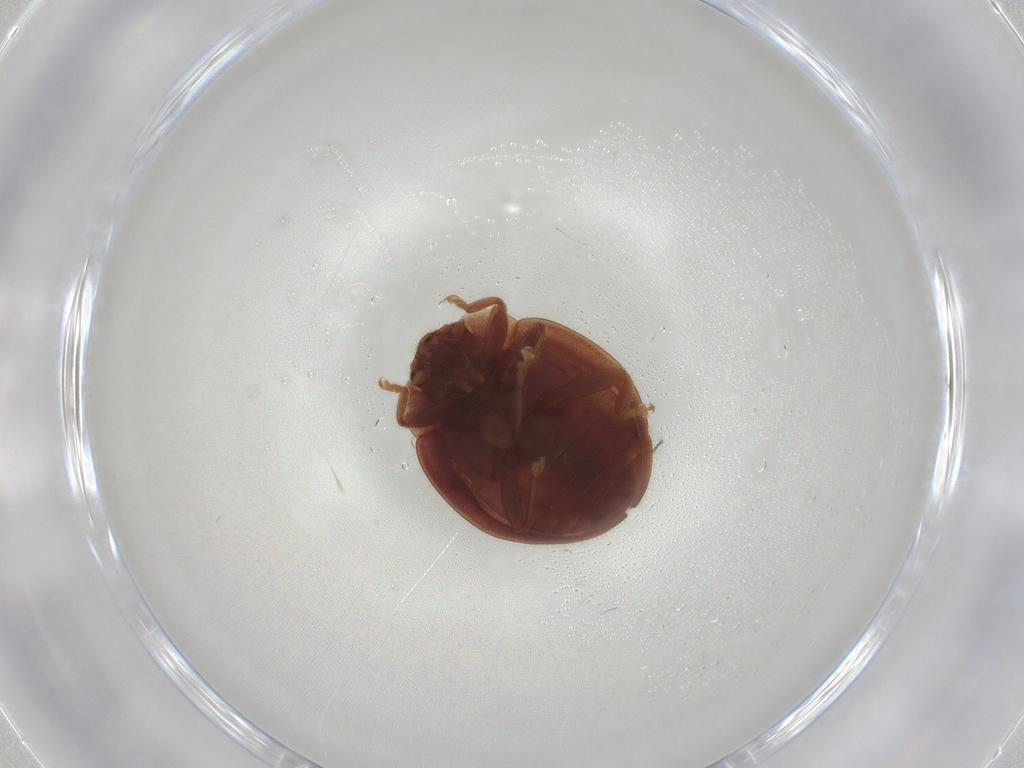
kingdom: Animalia
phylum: Arthropoda
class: Insecta
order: Coleoptera
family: Coccinellidae
